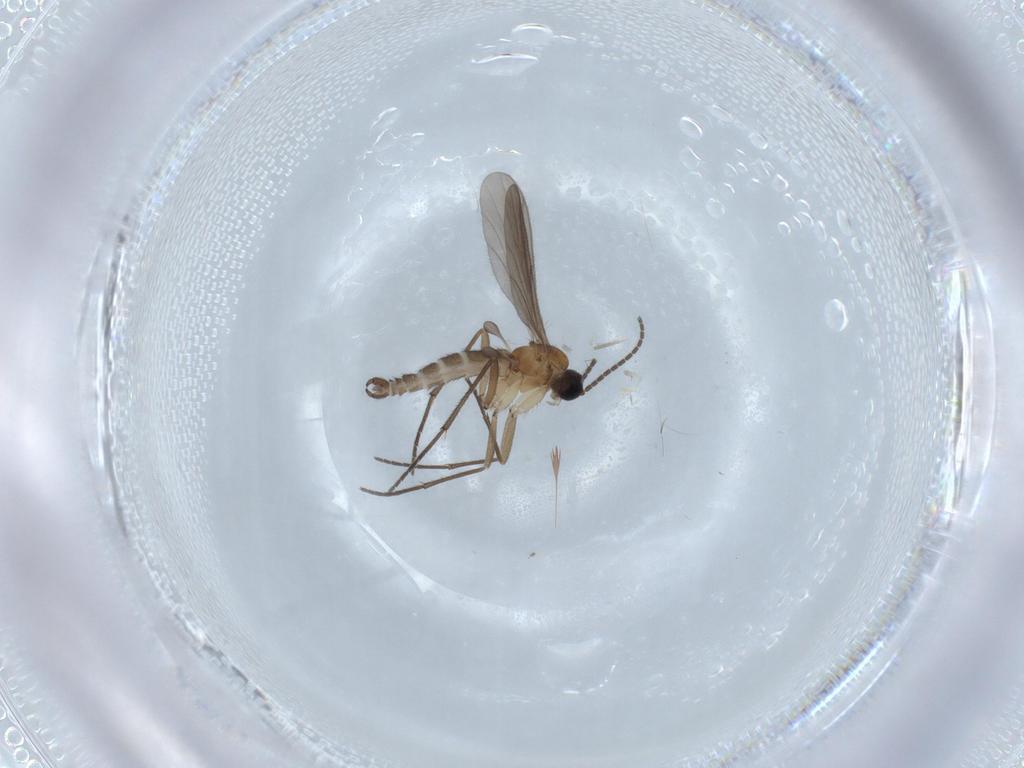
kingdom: Animalia
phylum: Arthropoda
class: Insecta
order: Diptera
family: Sciaridae
